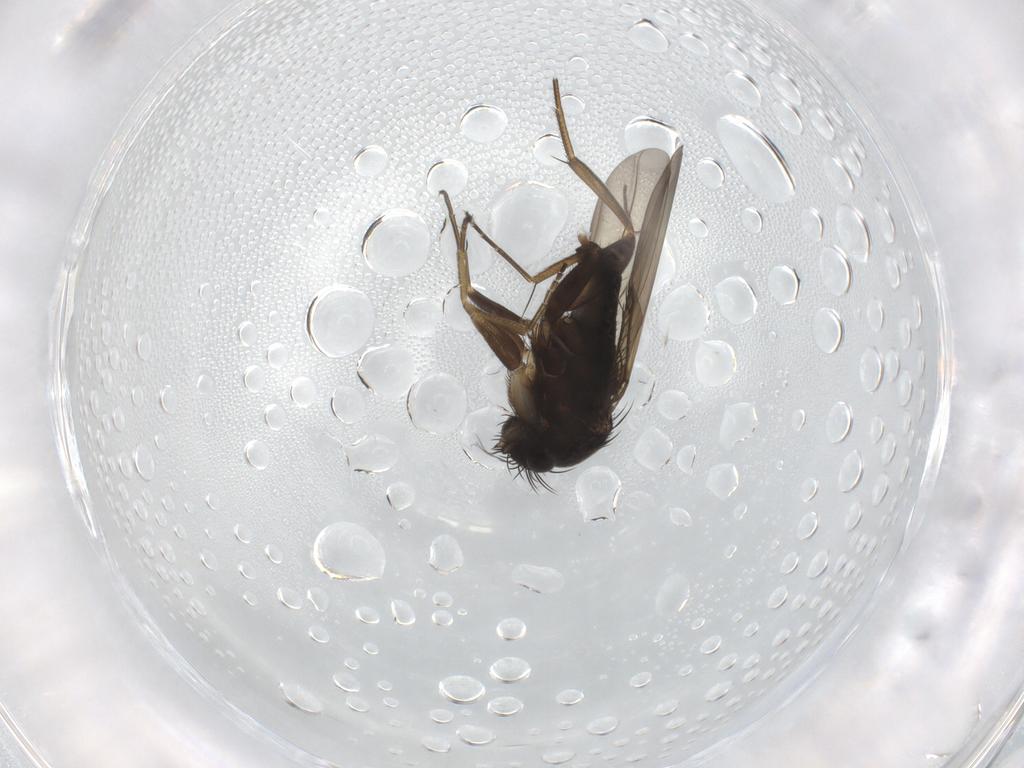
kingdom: Animalia
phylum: Arthropoda
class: Insecta
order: Diptera
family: Phoridae
